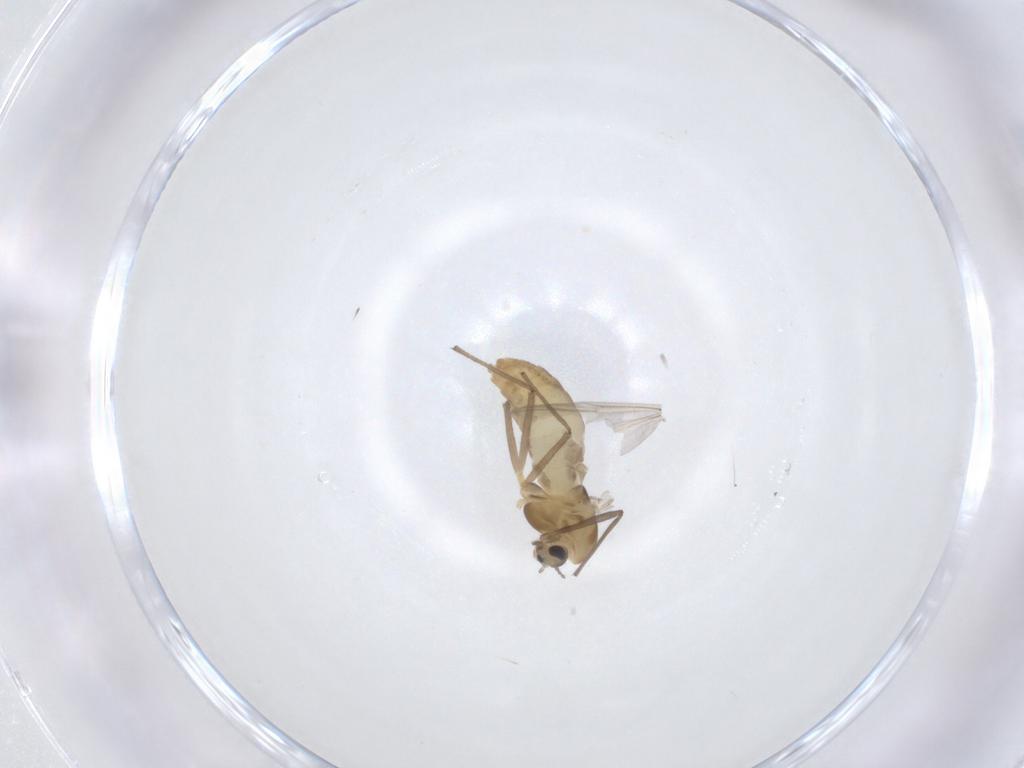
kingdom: Animalia
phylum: Arthropoda
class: Insecta
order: Diptera
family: Chironomidae
